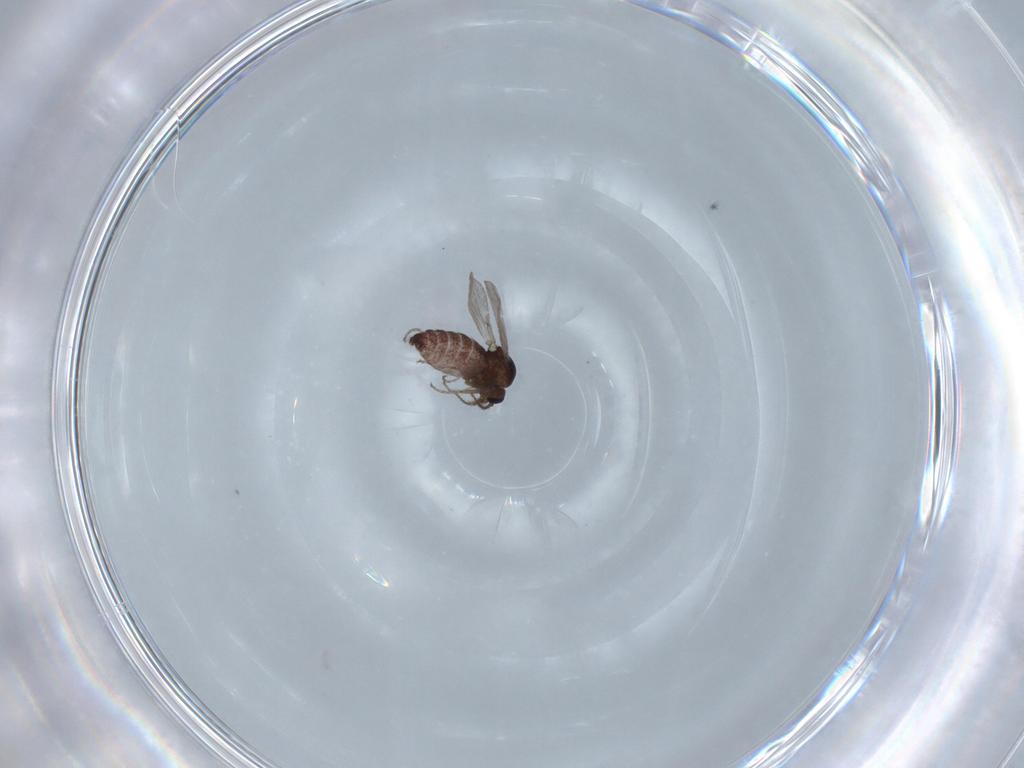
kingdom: Animalia
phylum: Arthropoda
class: Insecta
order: Diptera
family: Ceratopogonidae
